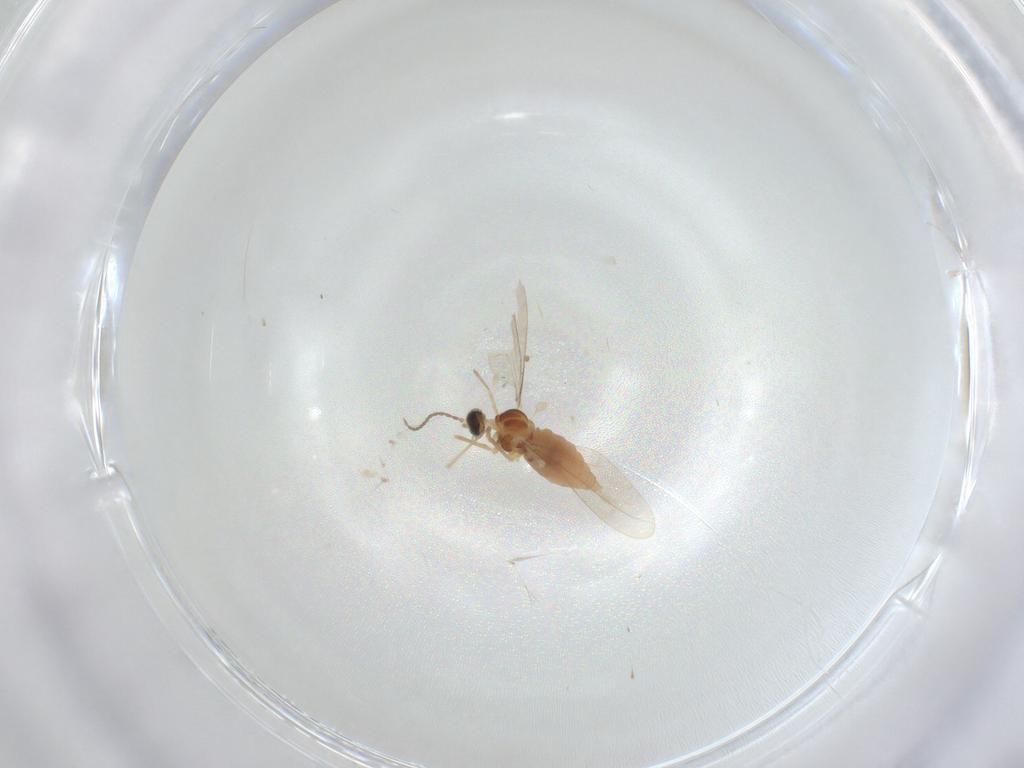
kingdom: Animalia
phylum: Arthropoda
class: Insecta
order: Diptera
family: Cecidomyiidae
